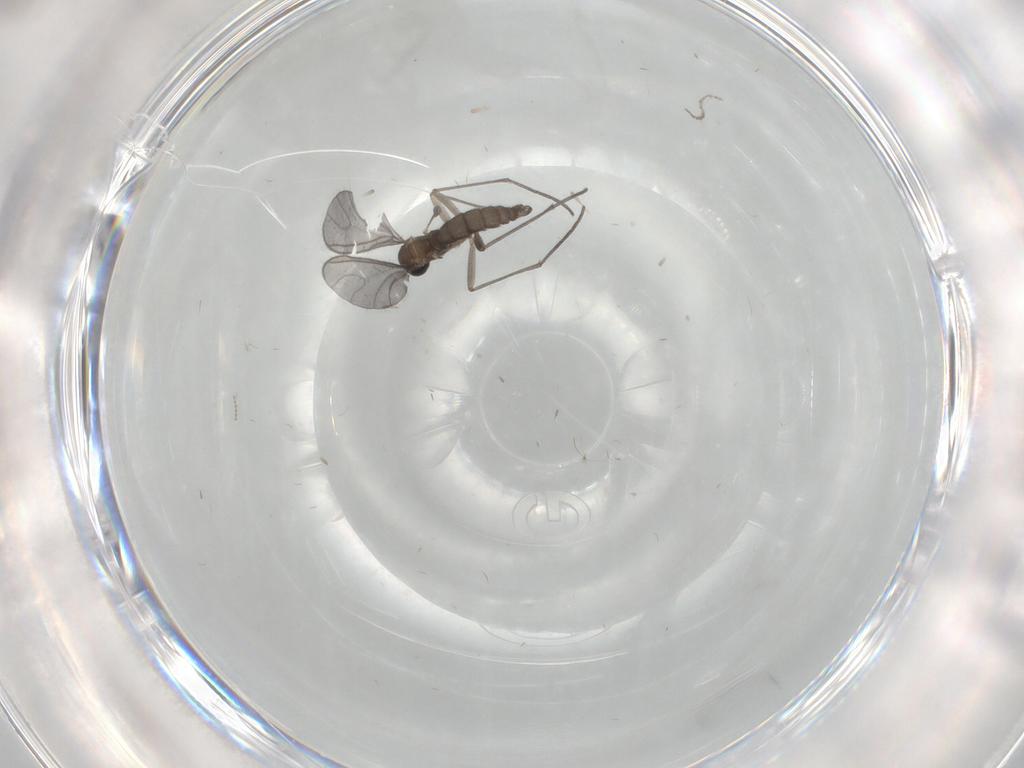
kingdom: Animalia
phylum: Arthropoda
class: Insecta
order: Diptera
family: Sciaridae
